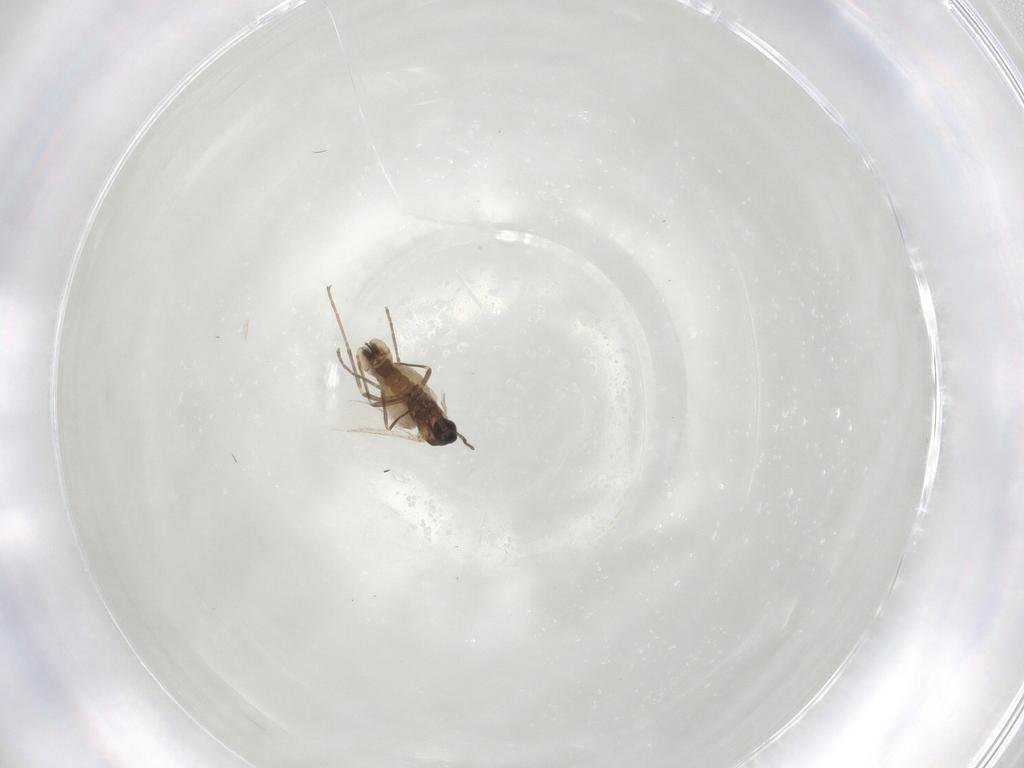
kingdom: Animalia
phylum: Arthropoda
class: Insecta
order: Diptera
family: Cecidomyiidae
